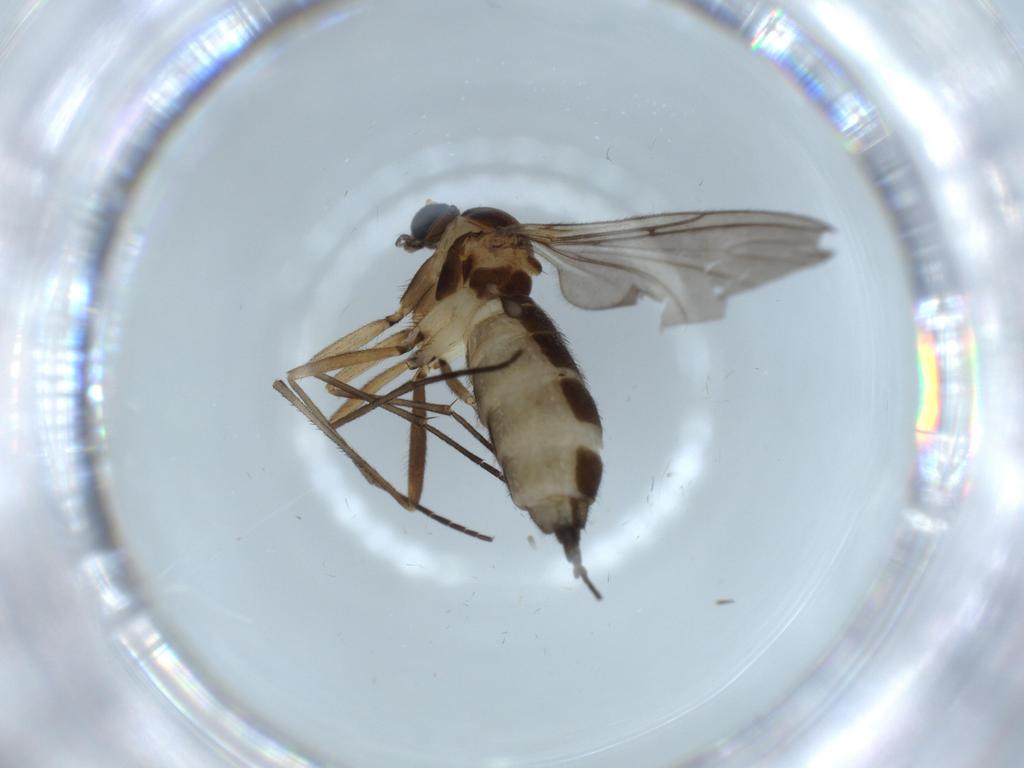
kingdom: Animalia
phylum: Arthropoda
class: Insecta
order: Diptera
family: Sciaridae
